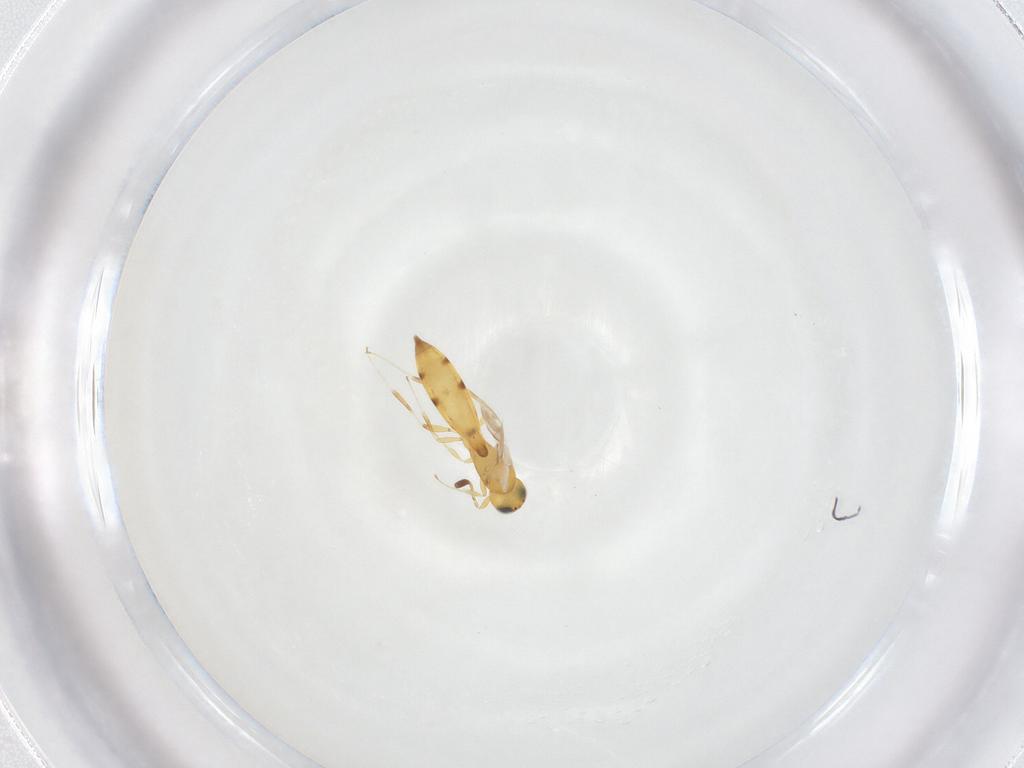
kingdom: Animalia
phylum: Arthropoda
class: Insecta
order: Hymenoptera
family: Scelionidae
